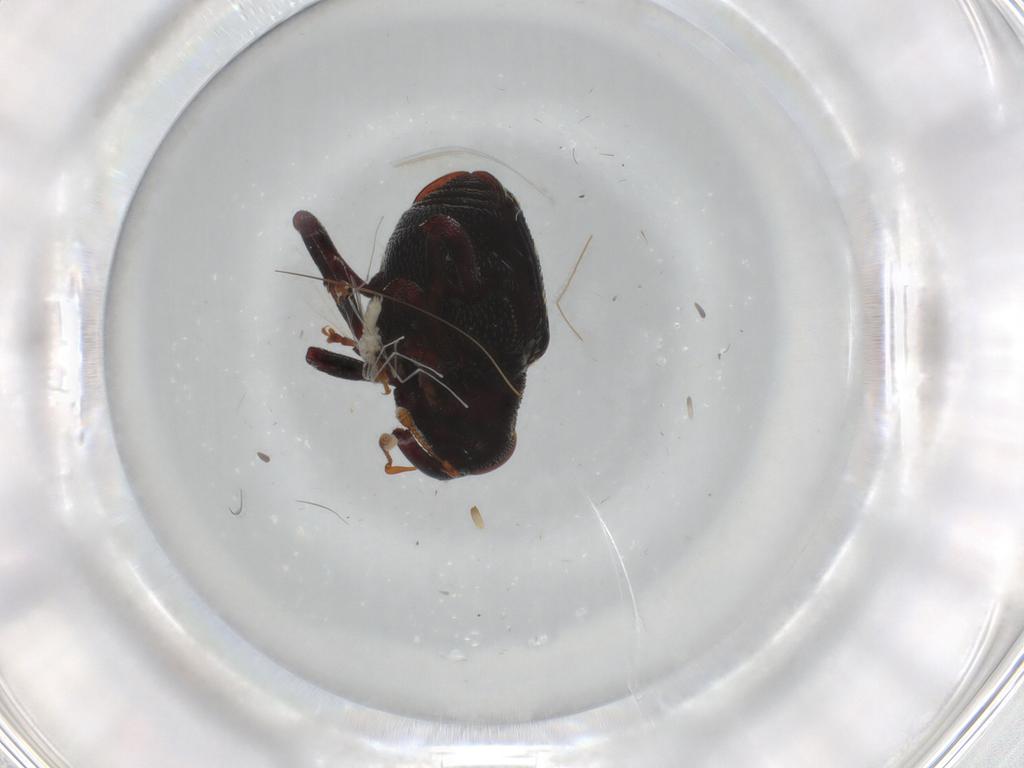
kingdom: Animalia
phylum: Arthropoda
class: Insecta
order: Coleoptera
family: Curculionidae
